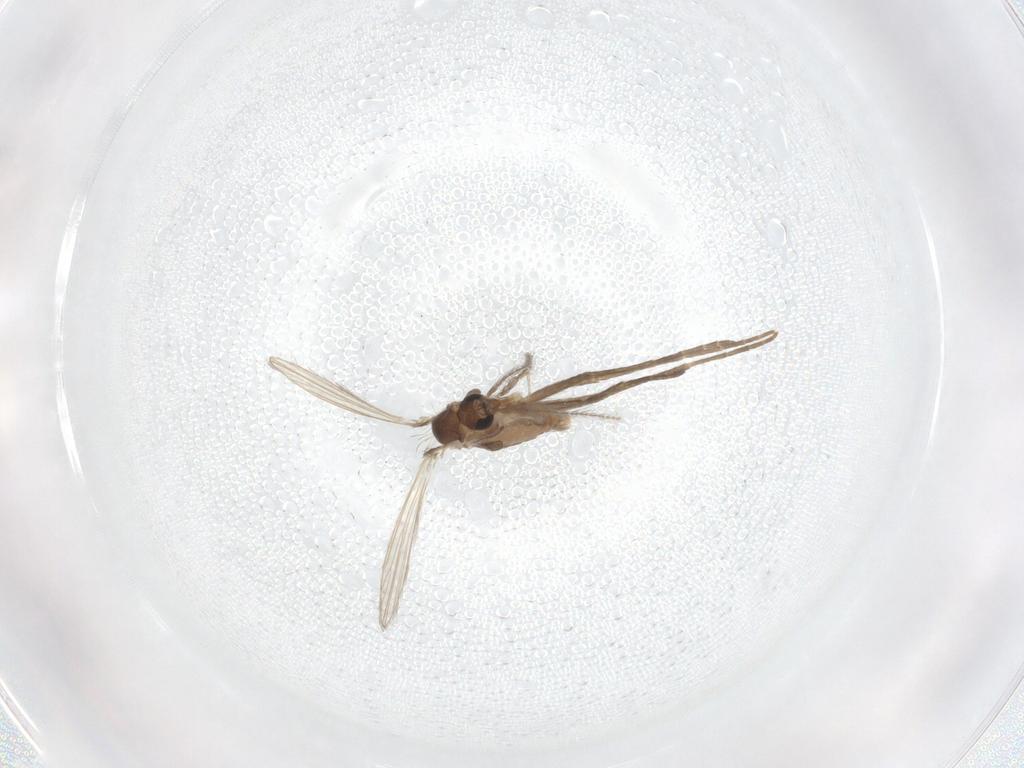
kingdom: Animalia
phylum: Arthropoda
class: Insecta
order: Diptera
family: Psychodidae
